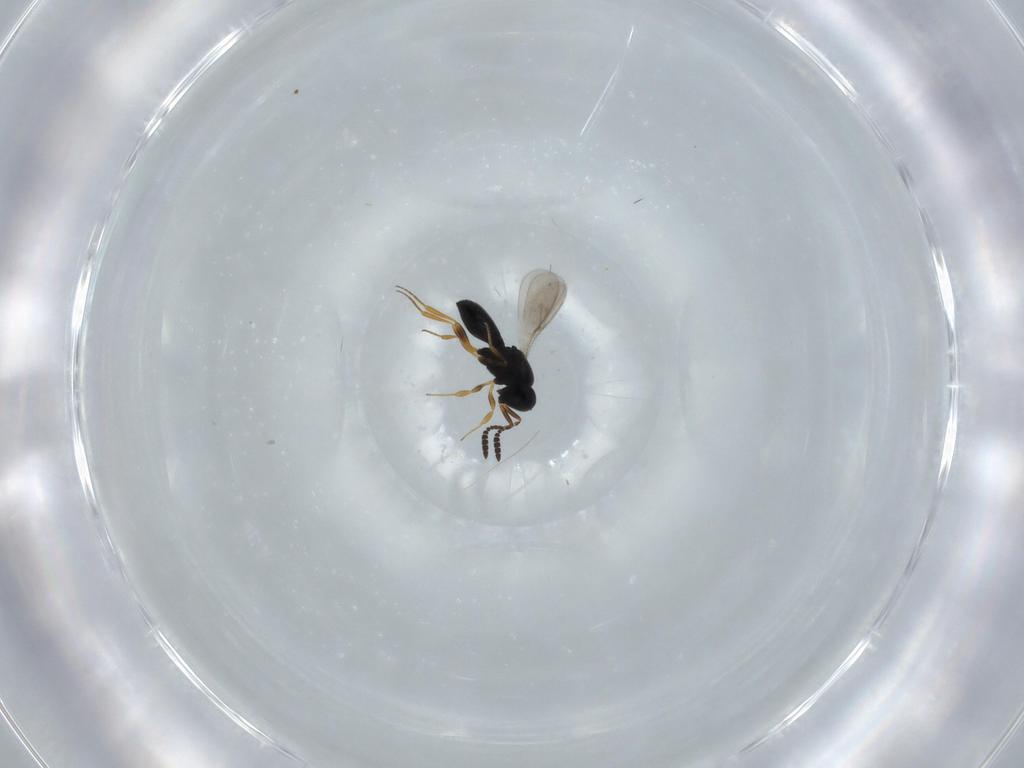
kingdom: Animalia
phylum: Arthropoda
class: Insecta
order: Hymenoptera
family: Scelionidae
